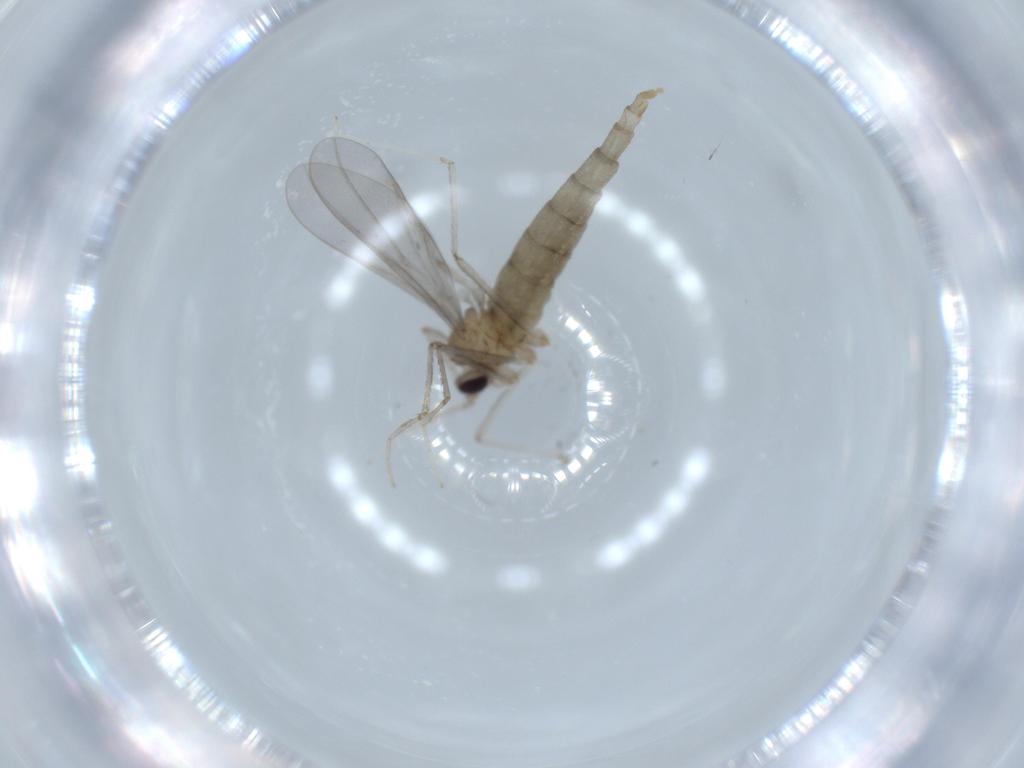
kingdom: Animalia
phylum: Arthropoda
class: Insecta
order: Diptera
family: Cecidomyiidae
